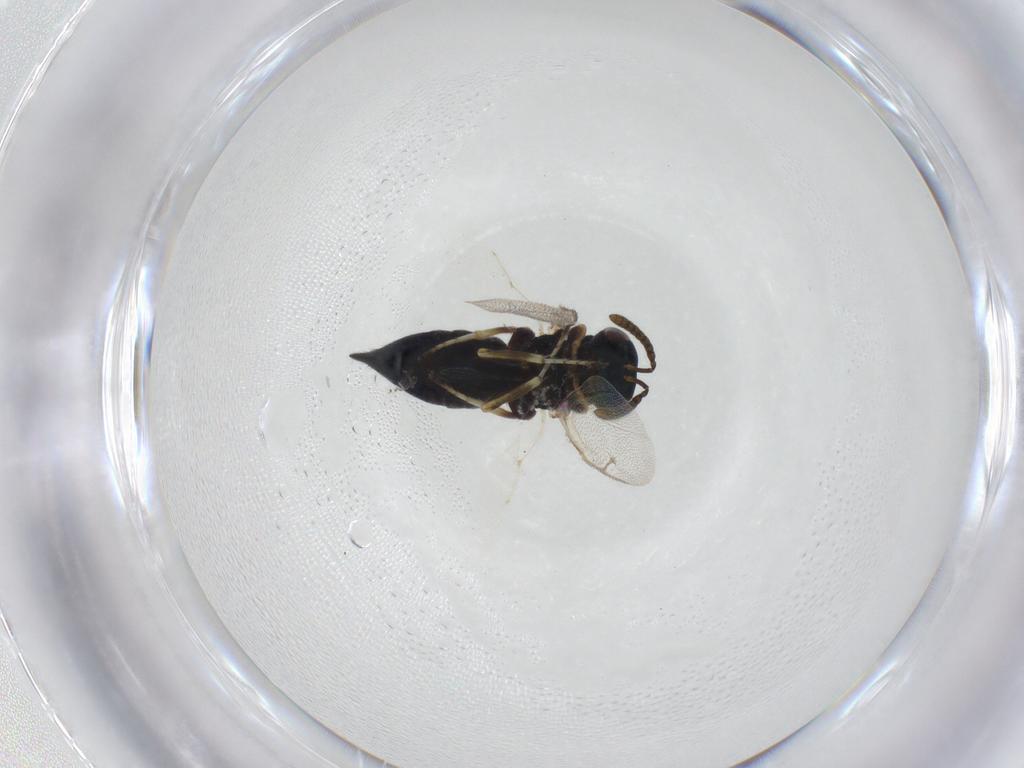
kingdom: Animalia
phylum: Arthropoda
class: Insecta
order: Hymenoptera
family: Pteromalidae
